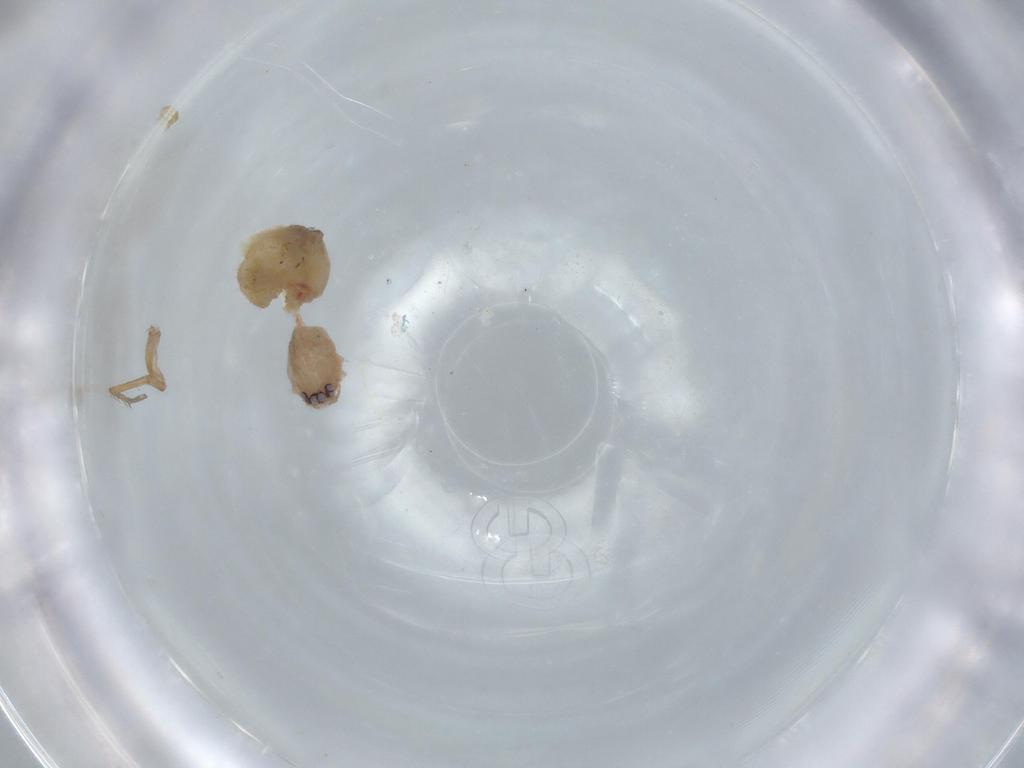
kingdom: Animalia
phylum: Arthropoda
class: Arachnida
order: Araneae
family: Oonopidae
